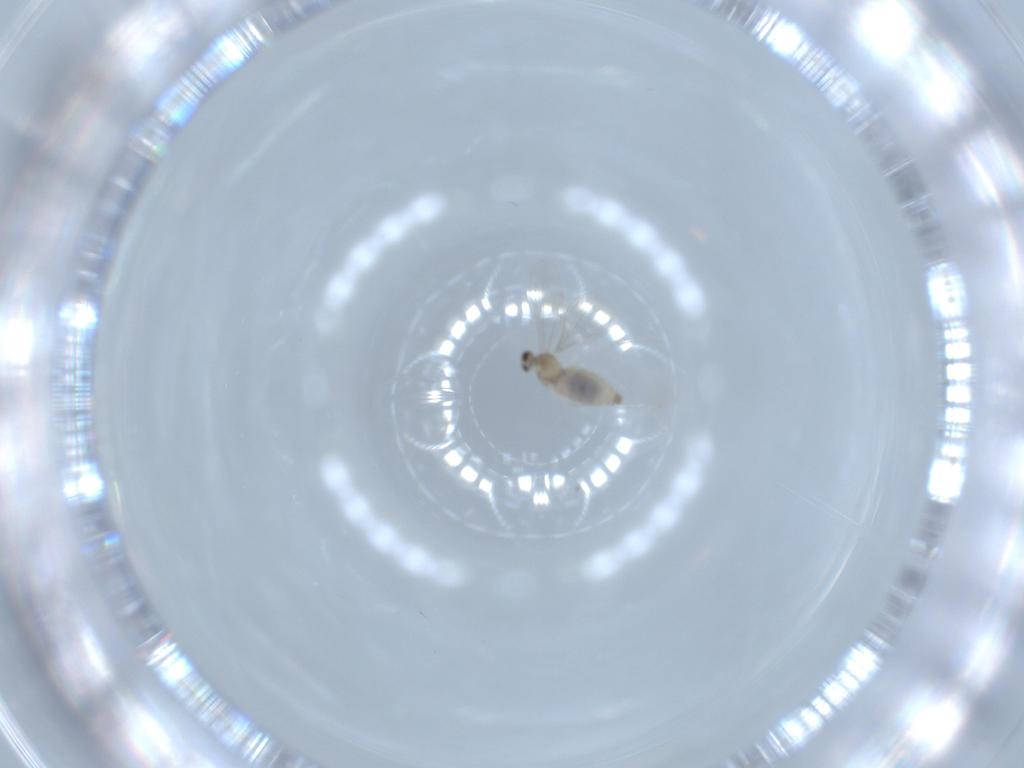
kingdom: Animalia
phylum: Arthropoda
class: Insecta
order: Diptera
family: Cecidomyiidae
